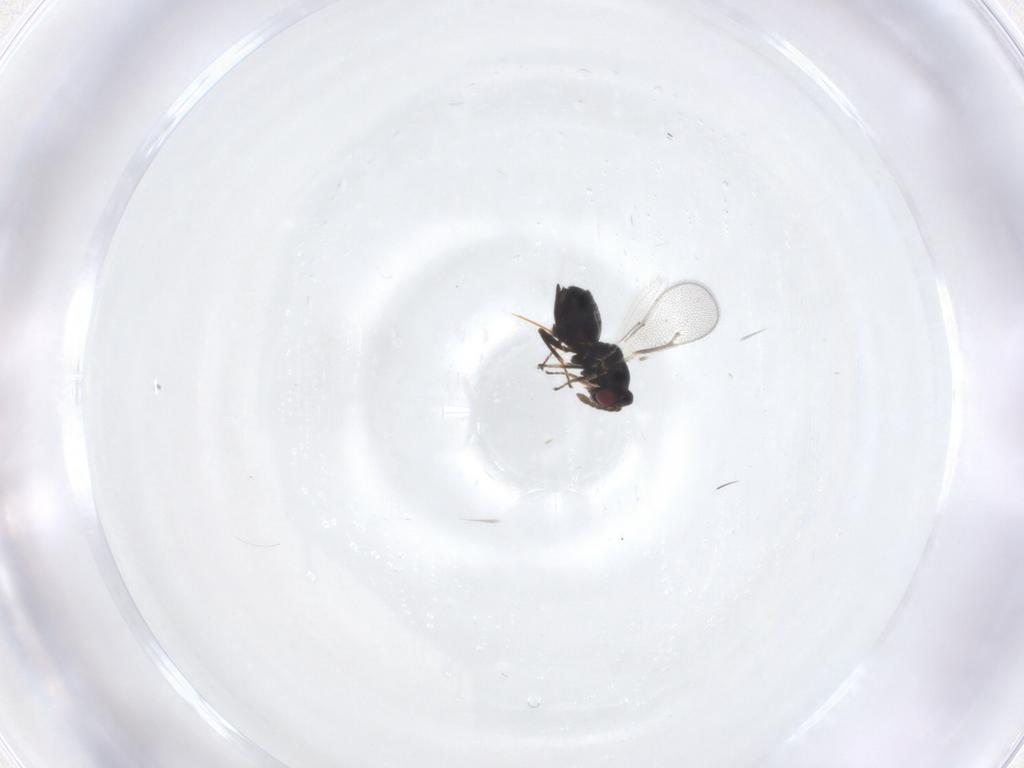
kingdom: Animalia
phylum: Arthropoda
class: Insecta
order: Hymenoptera
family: Eulophidae
